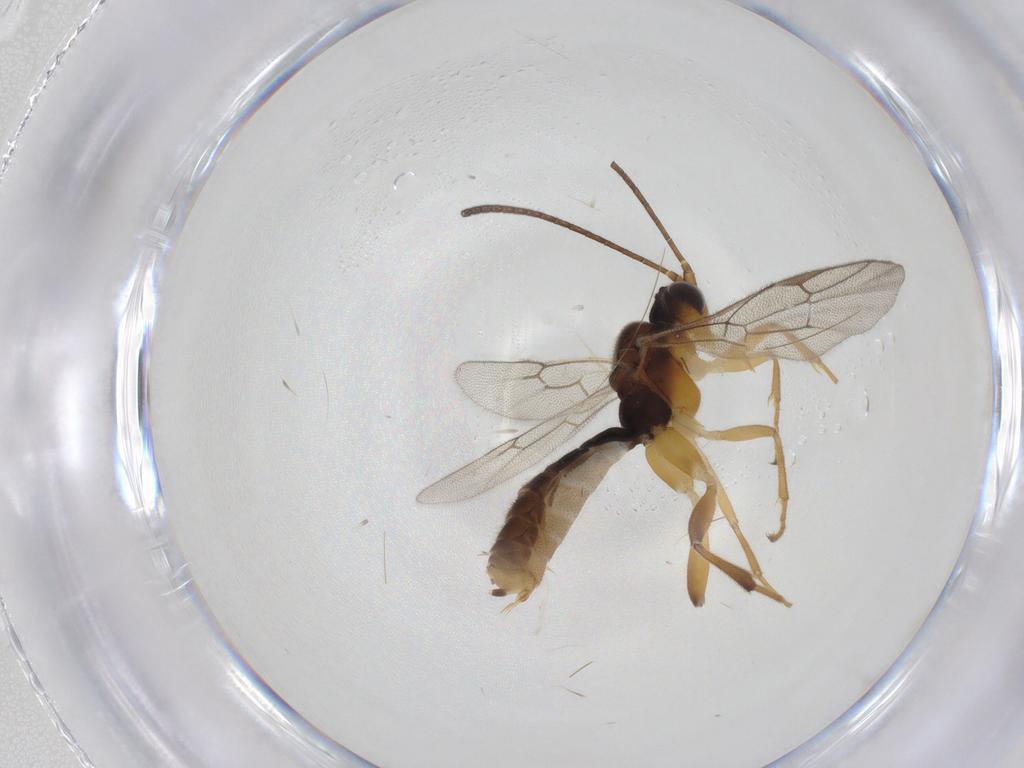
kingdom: Animalia
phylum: Arthropoda
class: Insecta
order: Hymenoptera
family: Ichneumonidae
